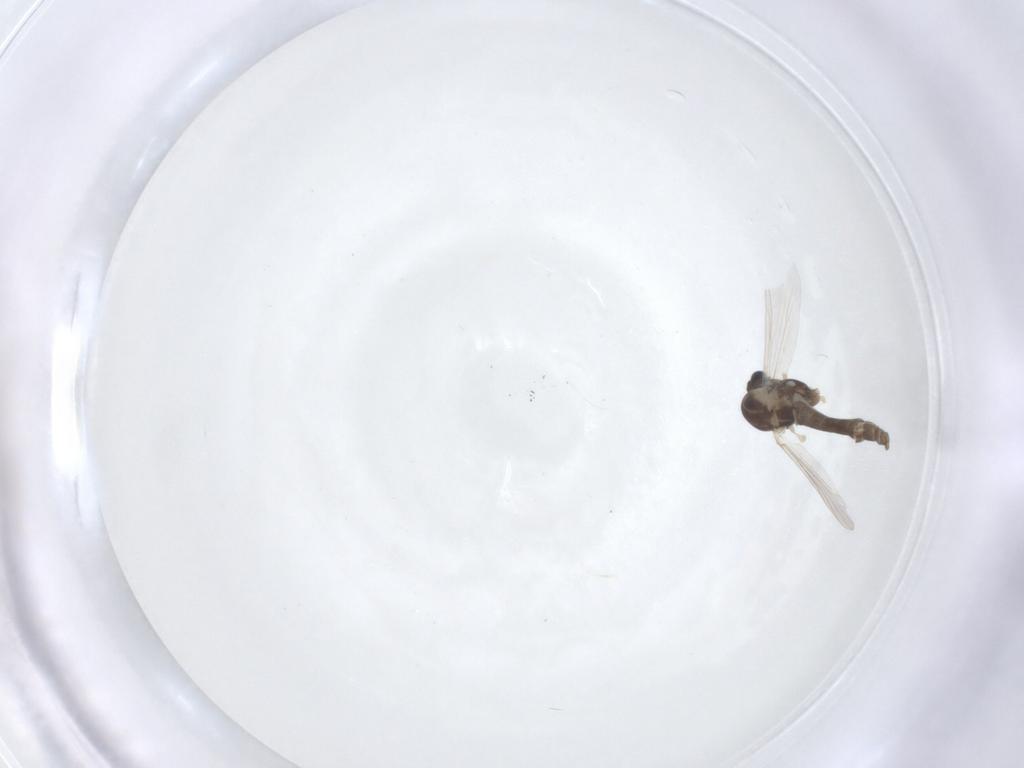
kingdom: Animalia
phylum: Arthropoda
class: Insecta
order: Diptera
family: Chironomidae
